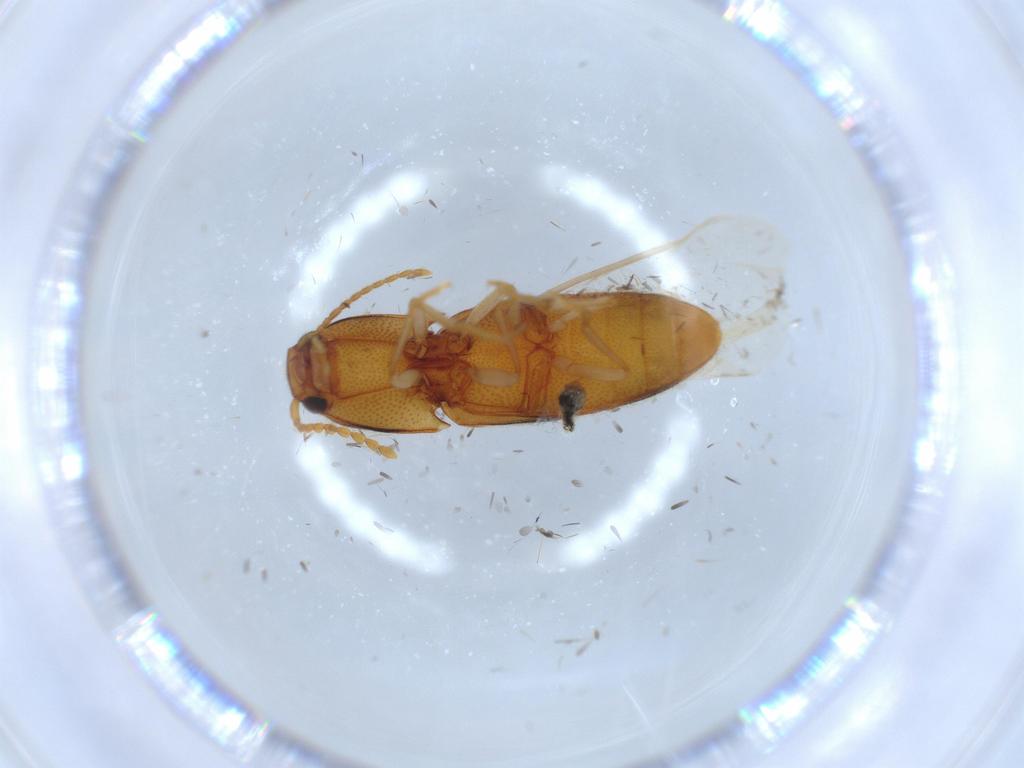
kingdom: Animalia
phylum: Arthropoda
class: Insecta
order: Coleoptera
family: Elateridae
